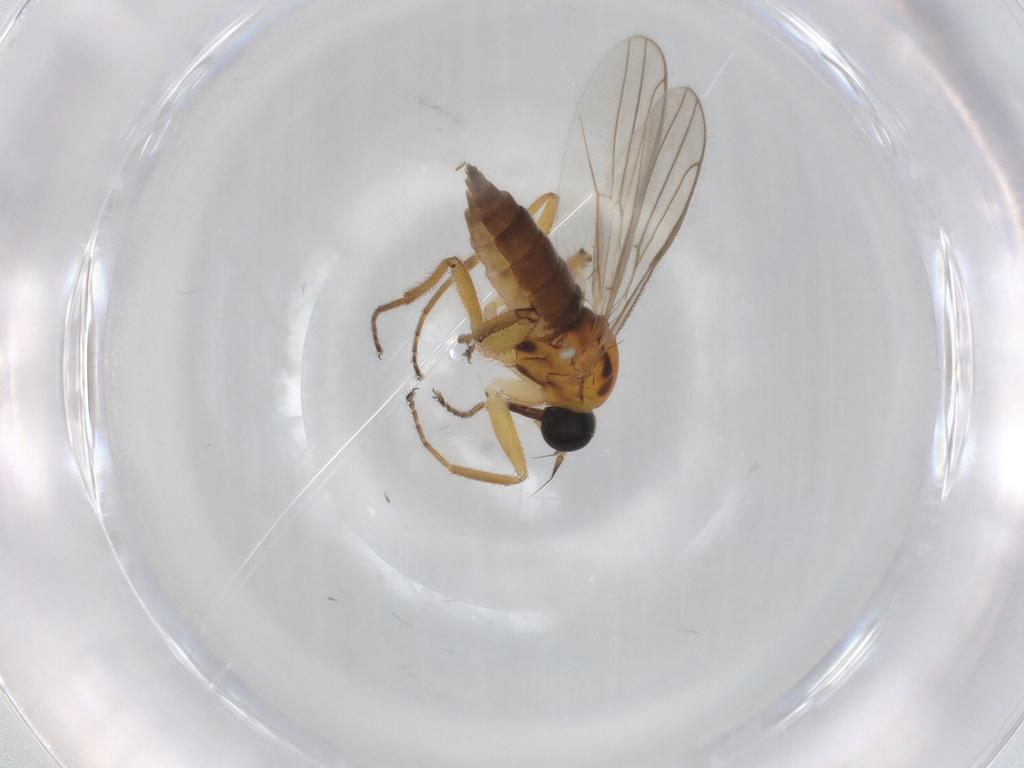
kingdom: Animalia
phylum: Arthropoda
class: Insecta
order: Diptera
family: Hybotidae
